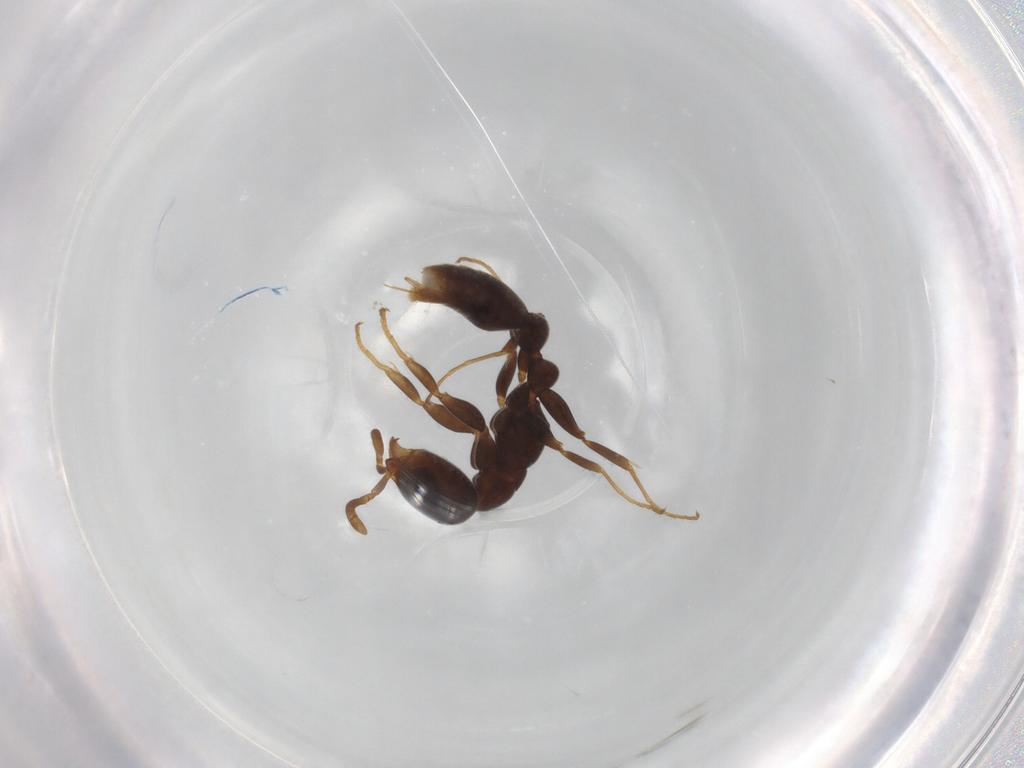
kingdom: Animalia
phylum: Arthropoda
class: Insecta
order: Hymenoptera
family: Formicidae
